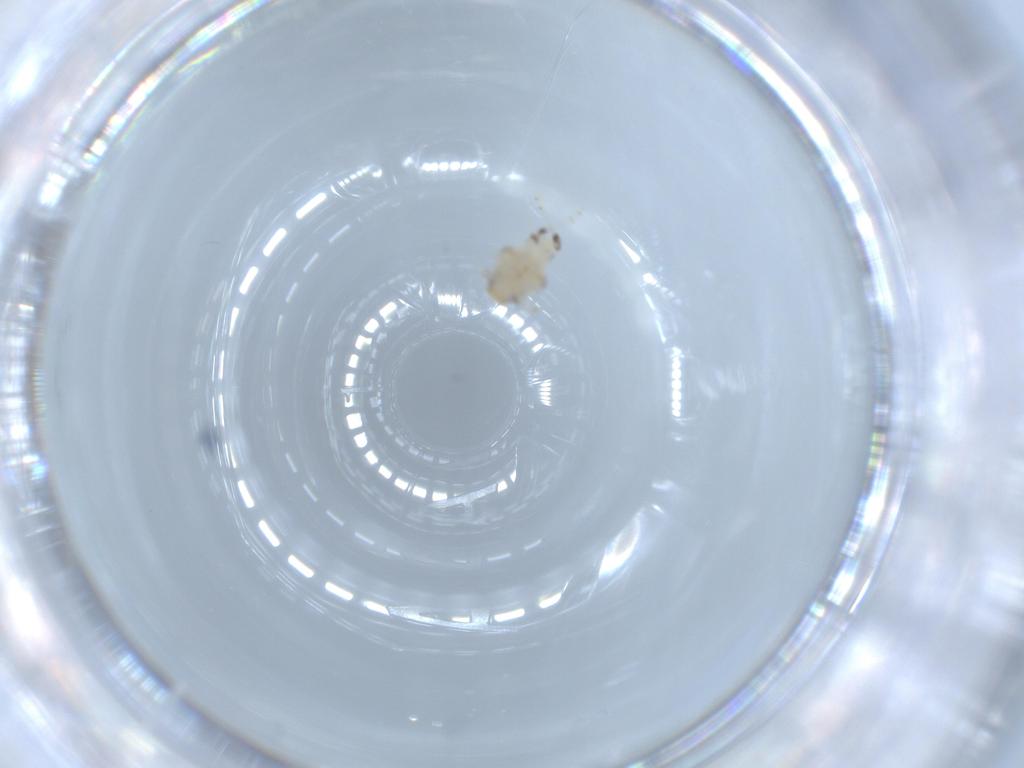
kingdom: Animalia
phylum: Arthropoda
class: Insecta
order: Hemiptera
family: Nogodinidae
